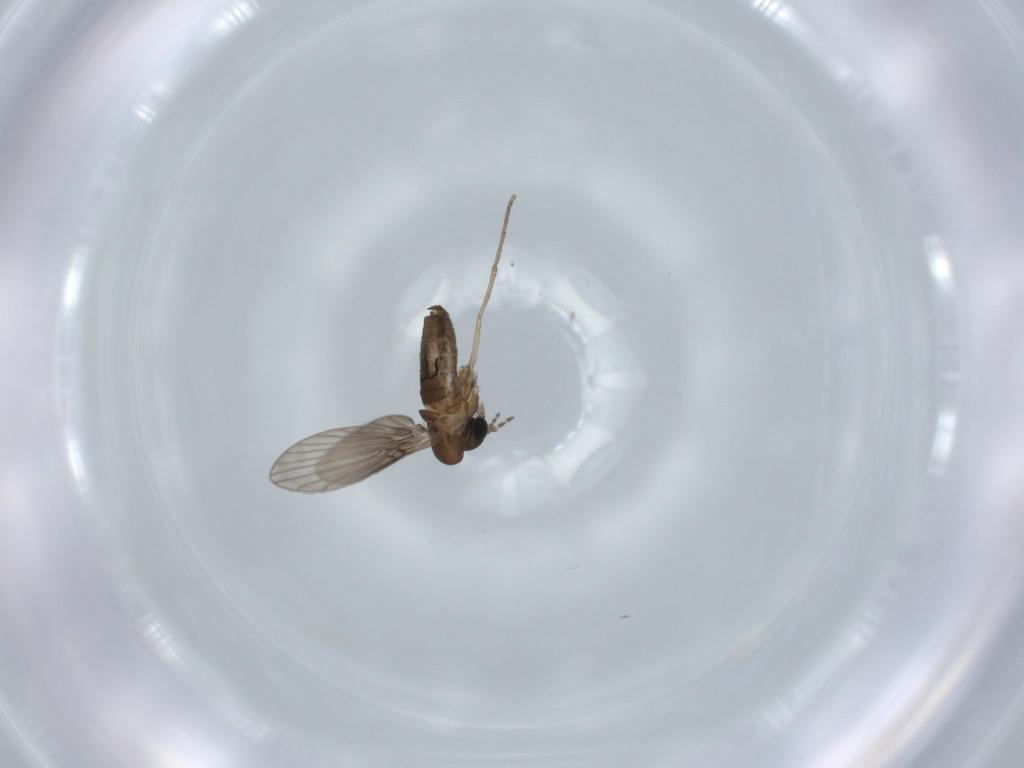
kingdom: Animalia
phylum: Arthropoda
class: Insecta
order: Diptera
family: Psychodidae
